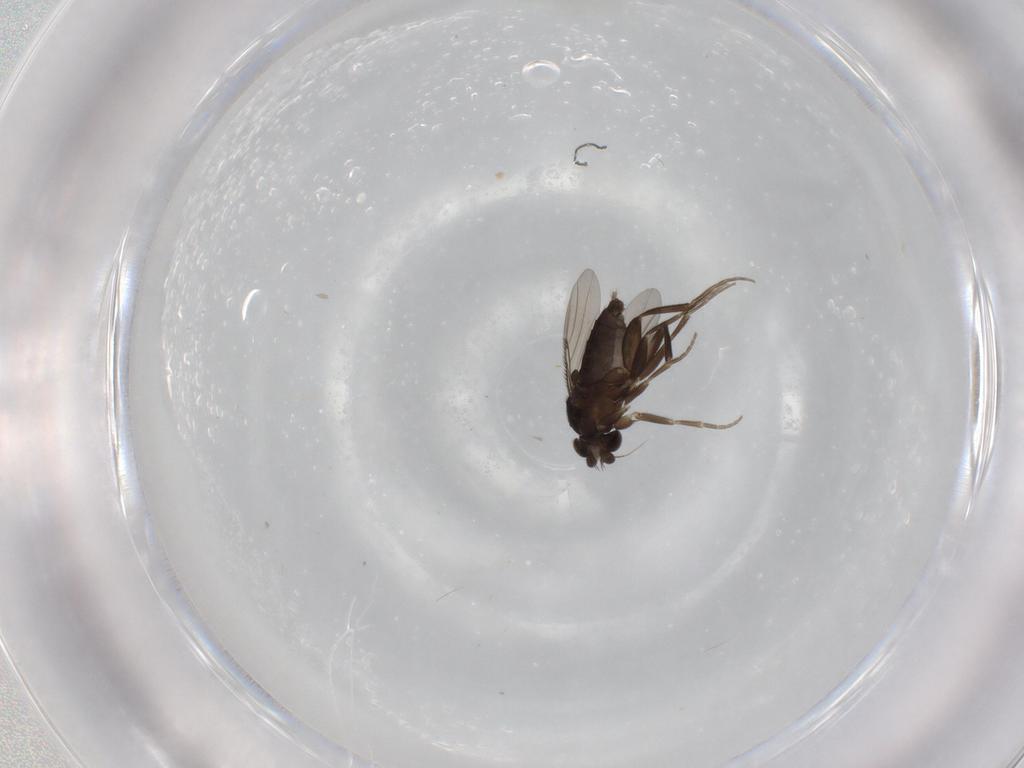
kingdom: Animalia
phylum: Arthropoda
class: Insecta
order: Diptera
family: Phoridae
